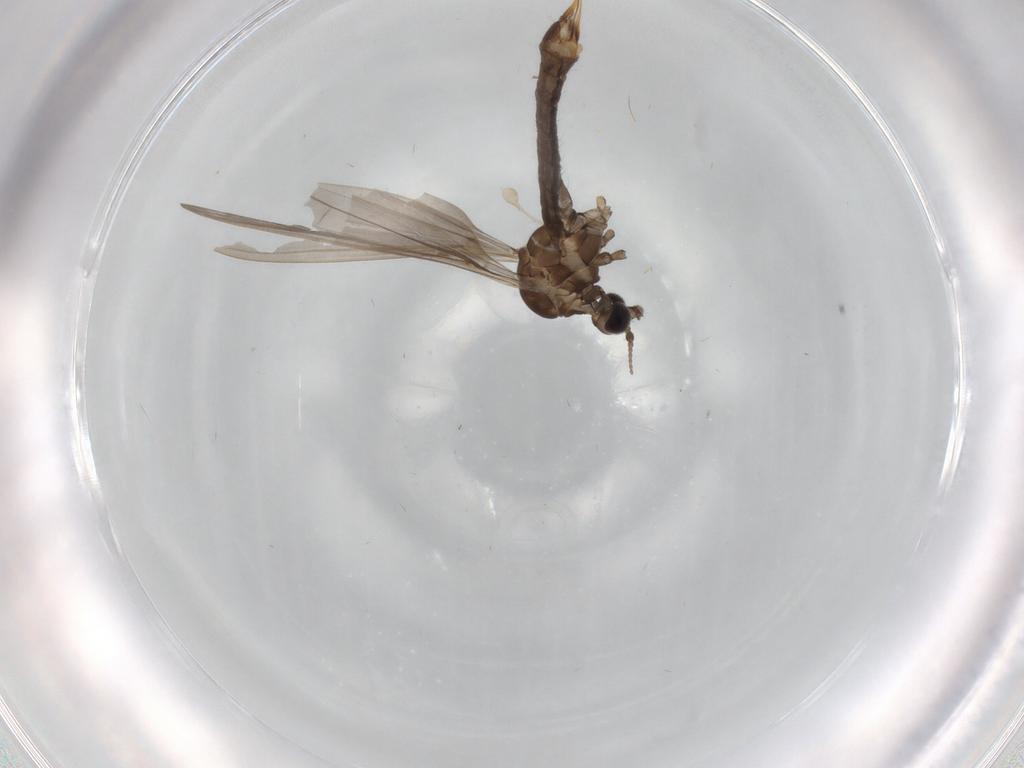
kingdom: Animalia
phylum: Arthropoda
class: Insecta
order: Diptera
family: Limoniidae
